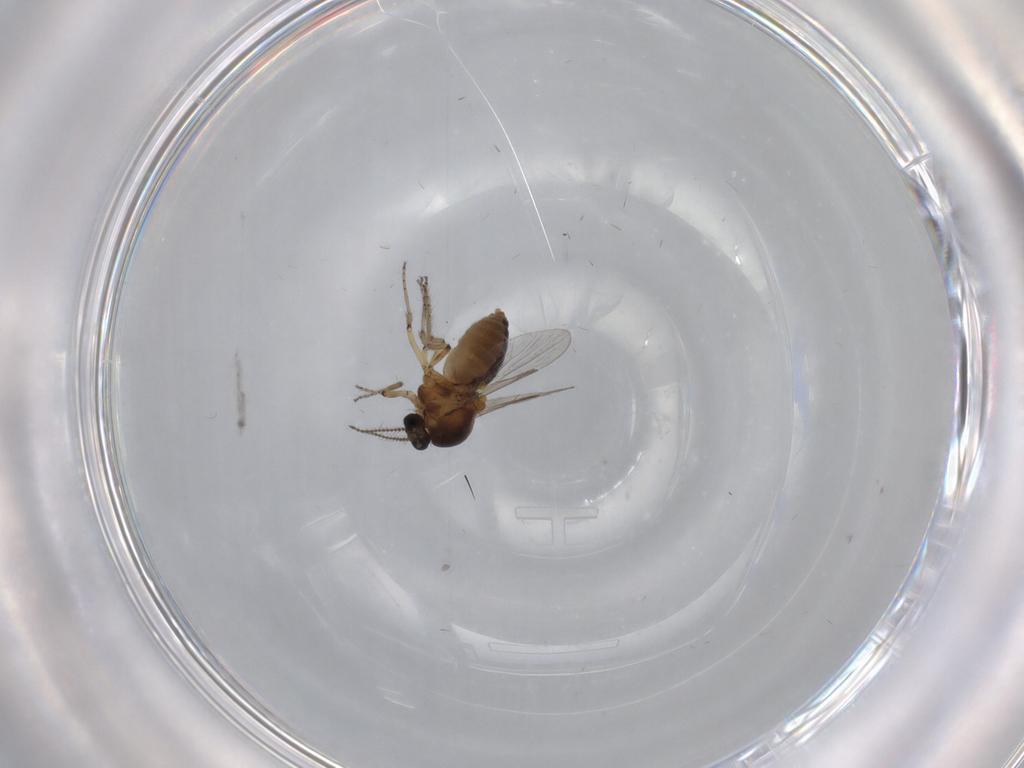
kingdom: Animalia
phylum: Arthropoda
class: Insecta
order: Diptera
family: Ceratopogonidae
